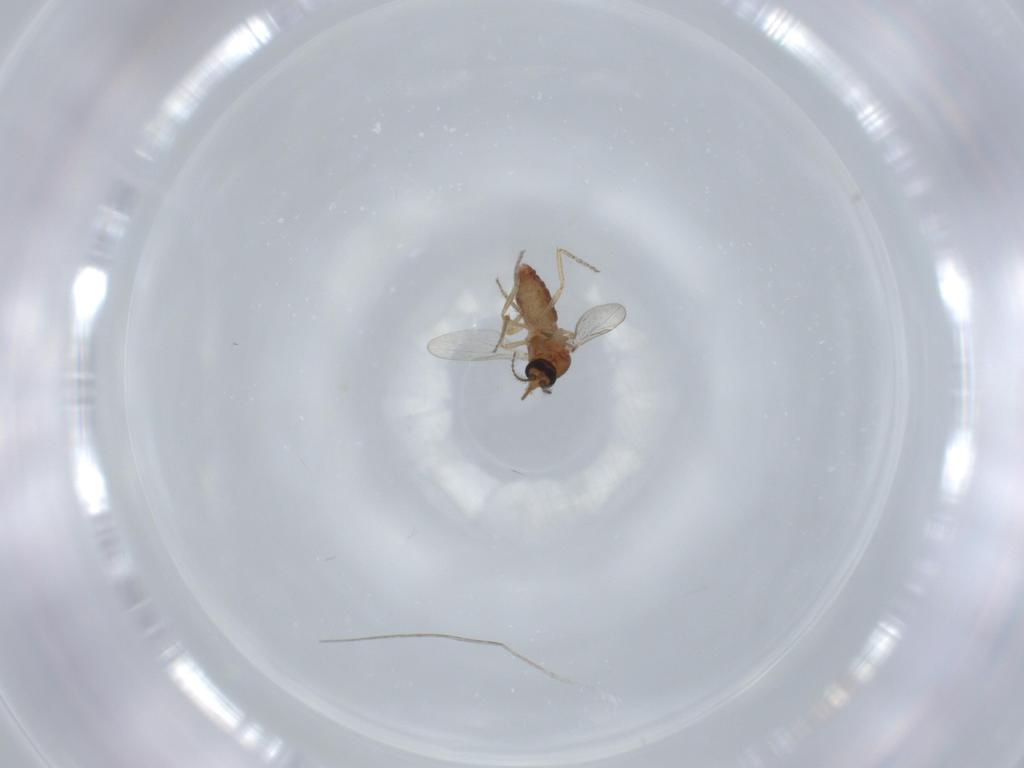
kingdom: Animalia
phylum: Arthropoda
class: Insecta
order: Diptera
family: Ceratopogonidae
